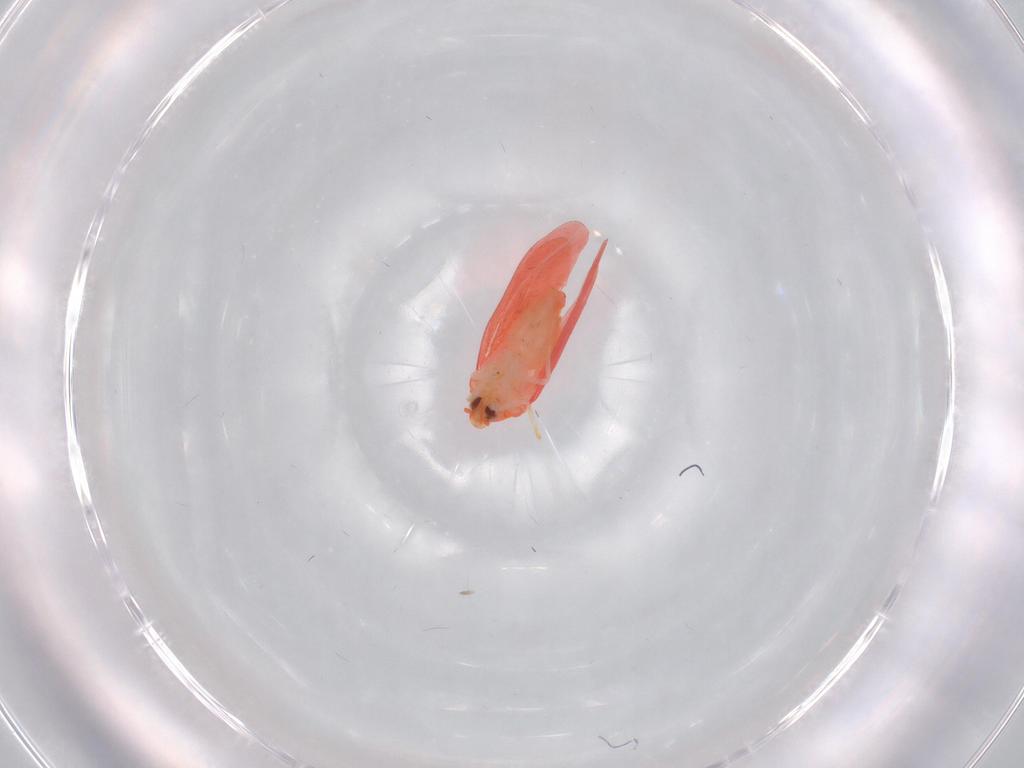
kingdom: Animalia
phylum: Arthropoda
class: Insecta
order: Hemiptera
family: Aleyrodidae
